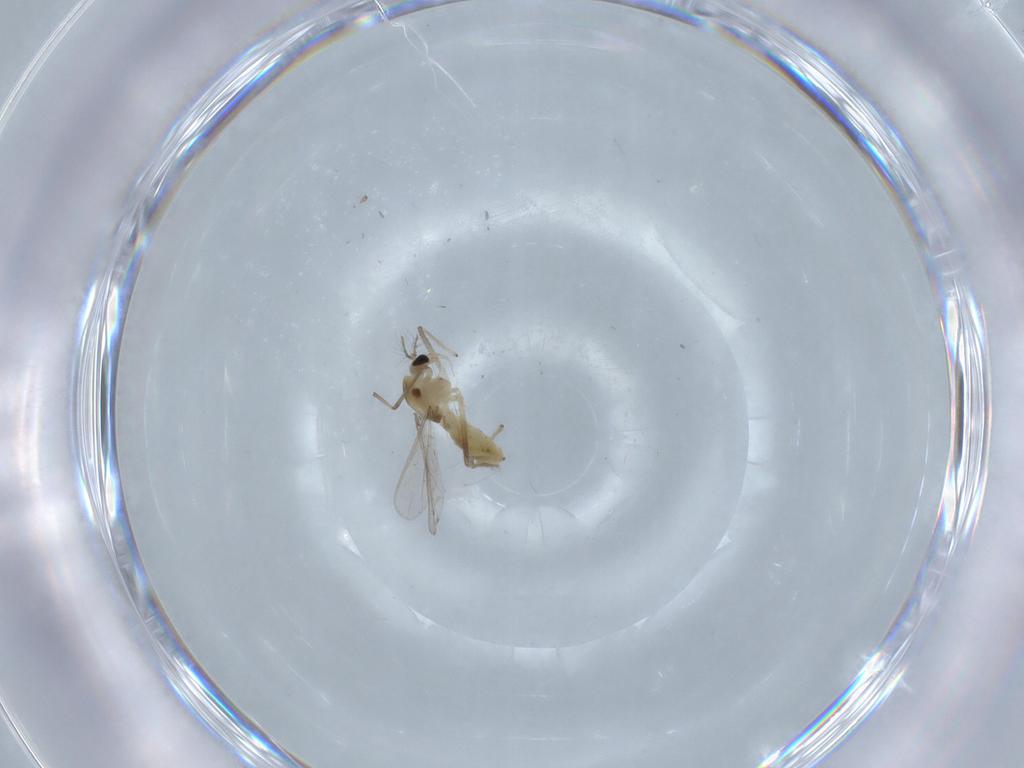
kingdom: Animalia
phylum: Arthropoda
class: Insecta
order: Diptera
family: Chironomidae
